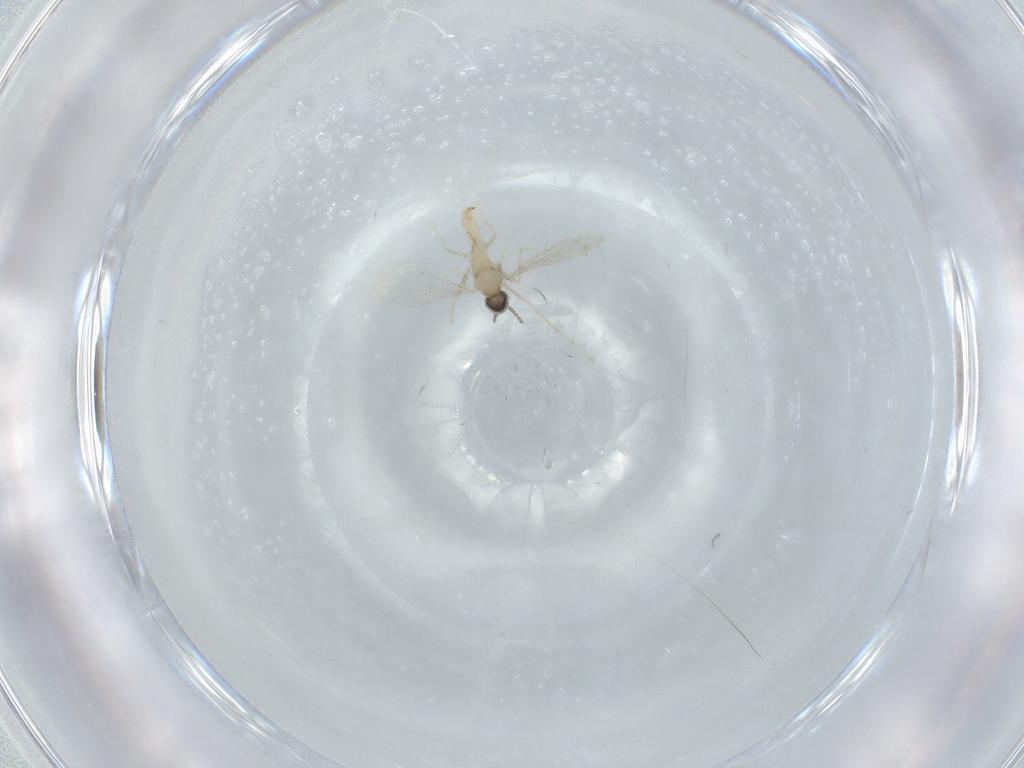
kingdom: Animalia
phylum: Arthropoda
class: Insecta
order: Diptera
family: Cecidomyiidae
